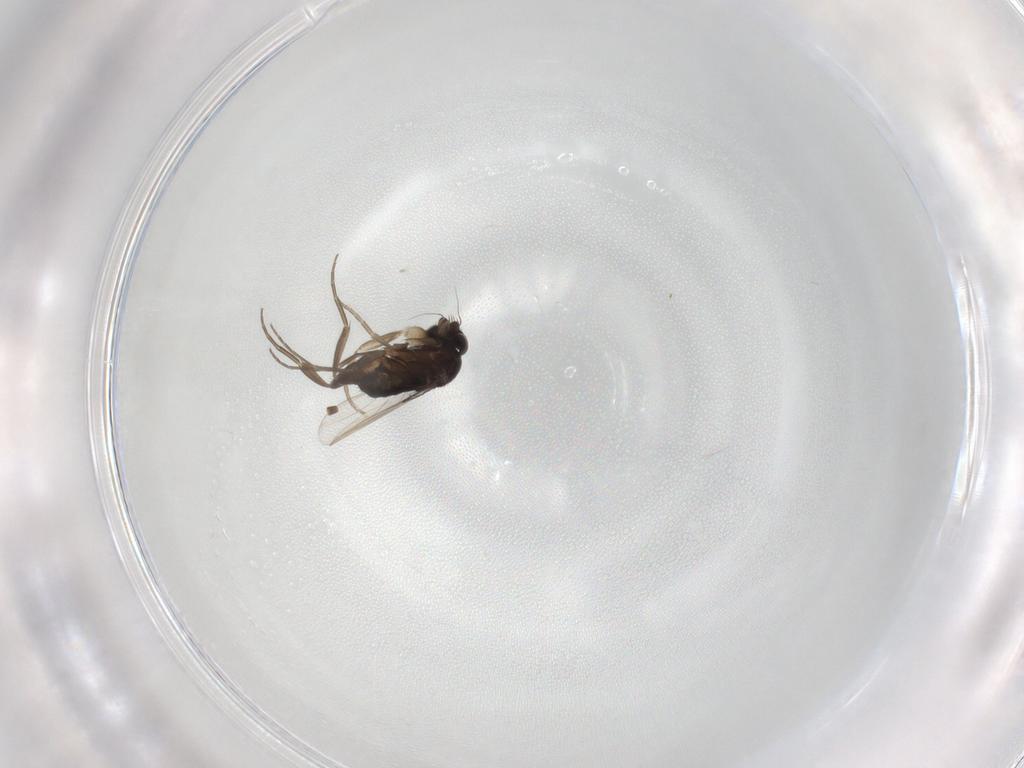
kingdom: Animalia
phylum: Arthropoda
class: Insecta
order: Diptera
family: Phoridae
